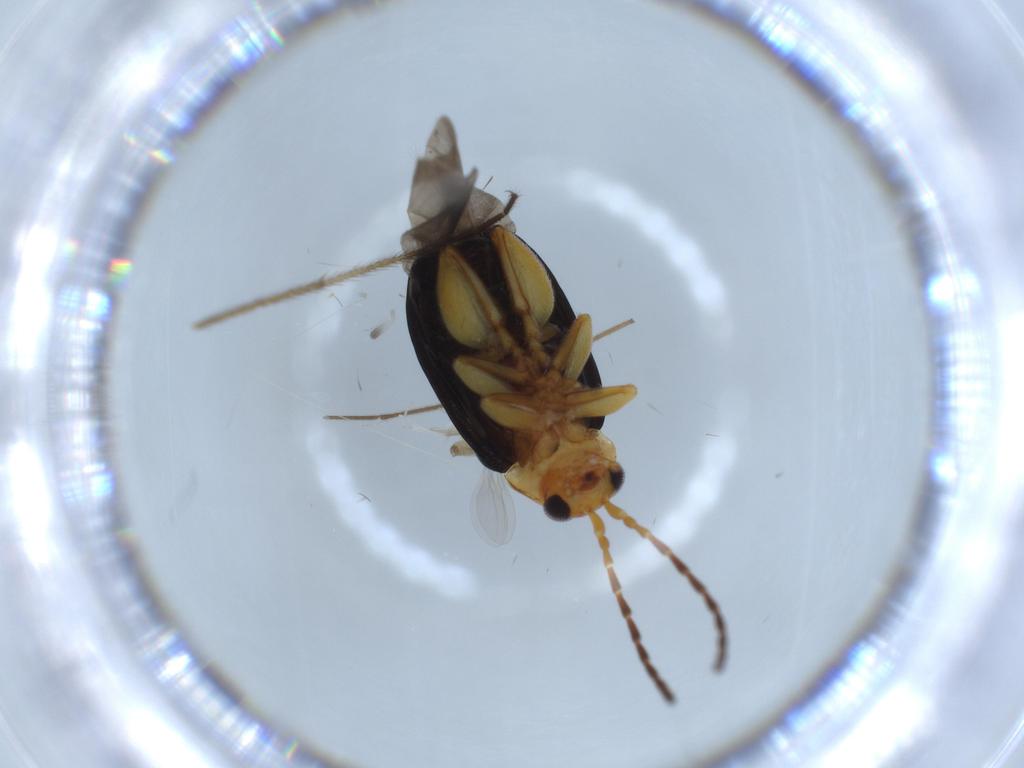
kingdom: Animalia
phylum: Arthropoda
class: Insecta
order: Coleoptera
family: Chrysomelidae
